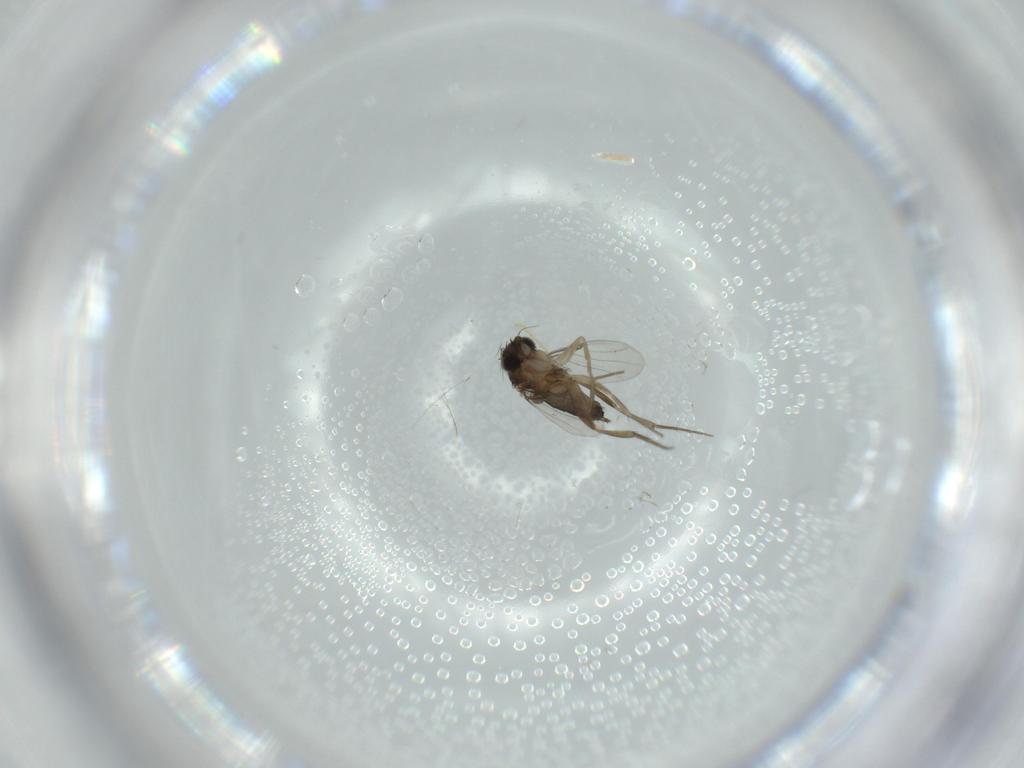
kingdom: Animalia
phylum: Arthropoda
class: Insecta
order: Diptera
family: Phoridae
